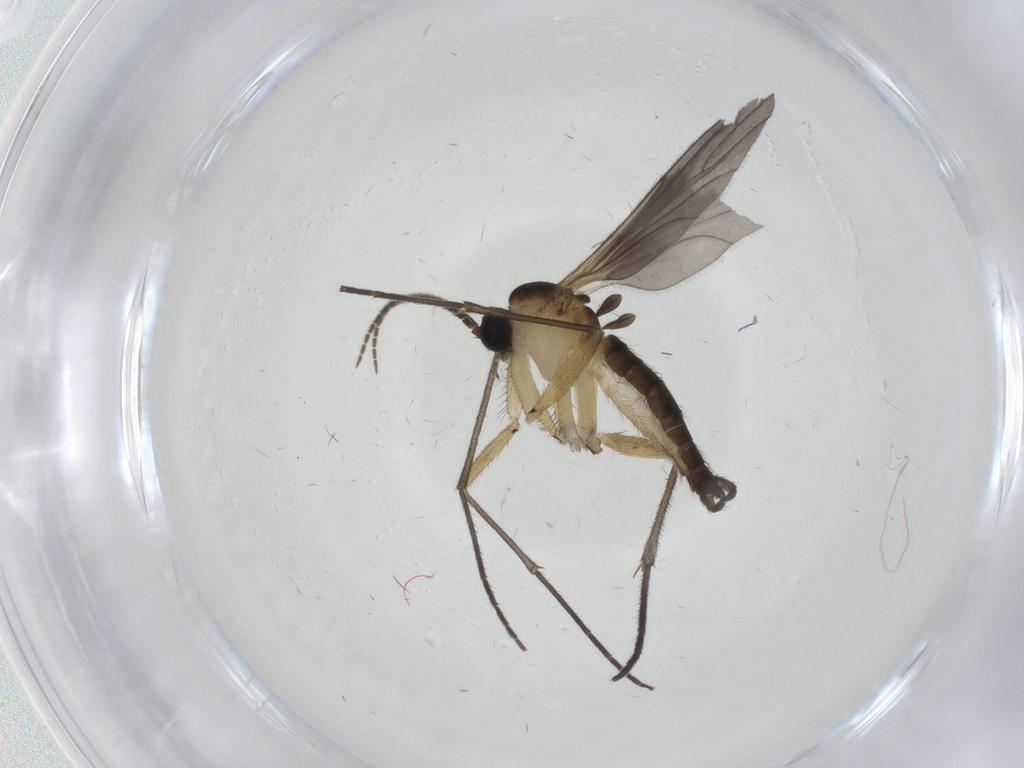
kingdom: Animalia
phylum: Arthropoda
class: Insecta
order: Diptera
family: Sciaridae
